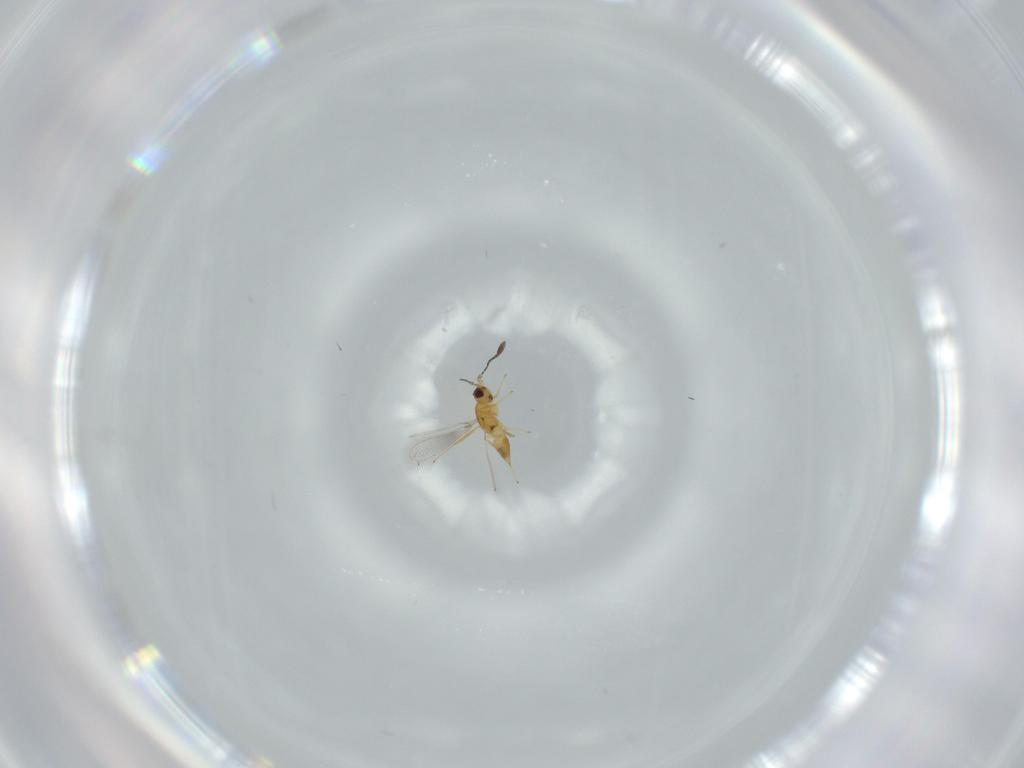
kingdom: Animalia
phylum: Arthropoda
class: Insecta
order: Hymenoptera
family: Mymaridae
